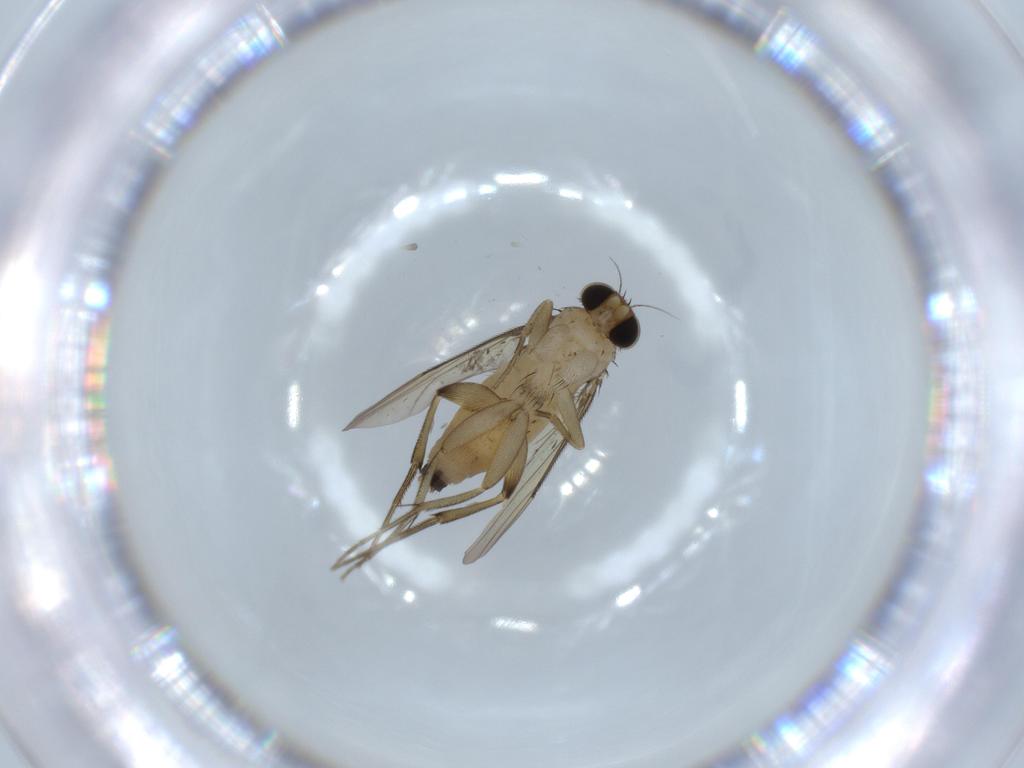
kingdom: Animalia
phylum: Arthropoda
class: Insecta
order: Diptera
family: Phoridae
